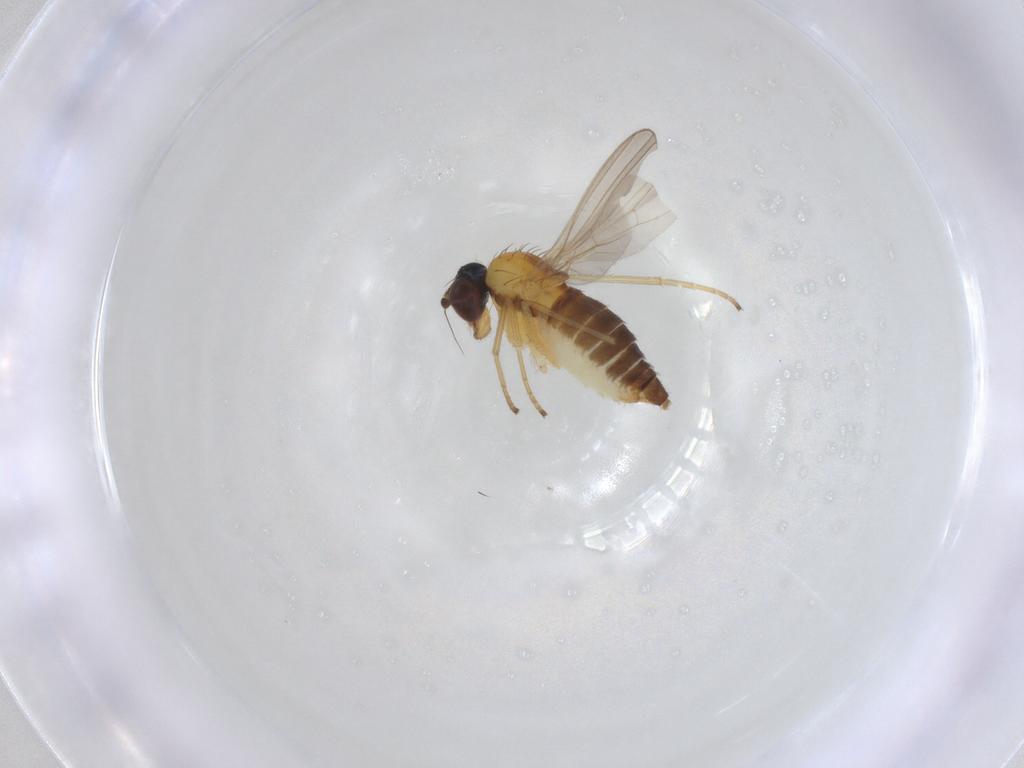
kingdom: Animalia
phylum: Arthropoda
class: Insecta
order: Diptera
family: Dolichopodidae
